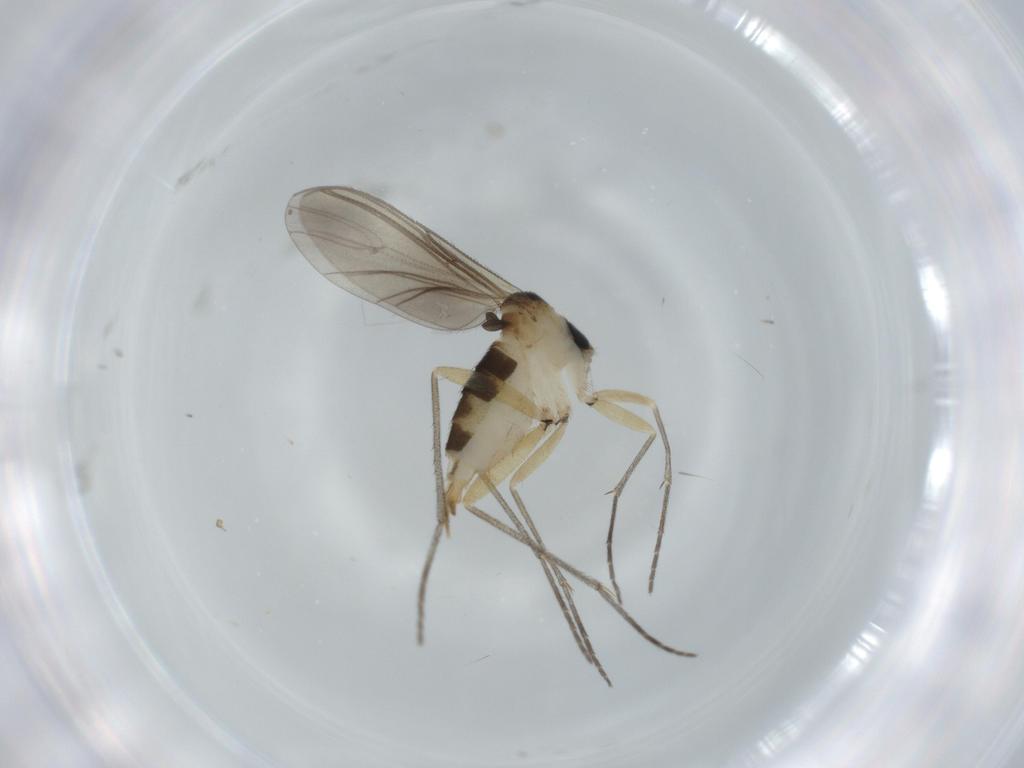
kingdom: Animalia
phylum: Arthropoda
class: Insecta
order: Diptera
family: Sciaridae
